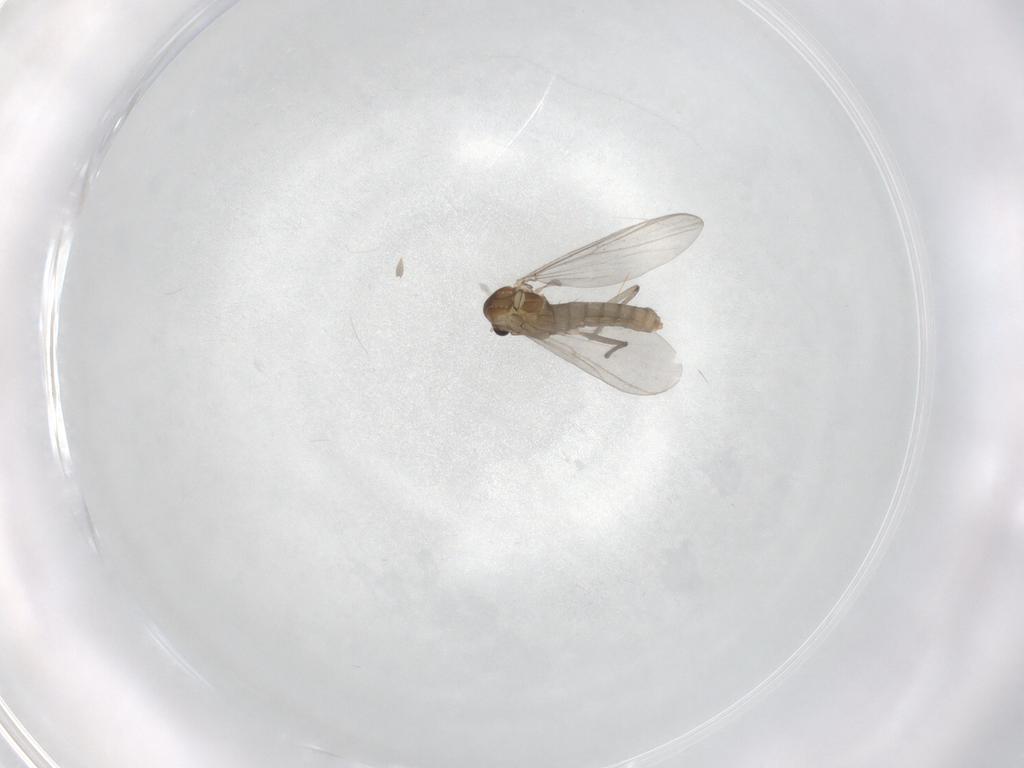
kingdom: Animalia
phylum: Arthropoda
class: Insecta
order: Diptera
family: Chironomidae
